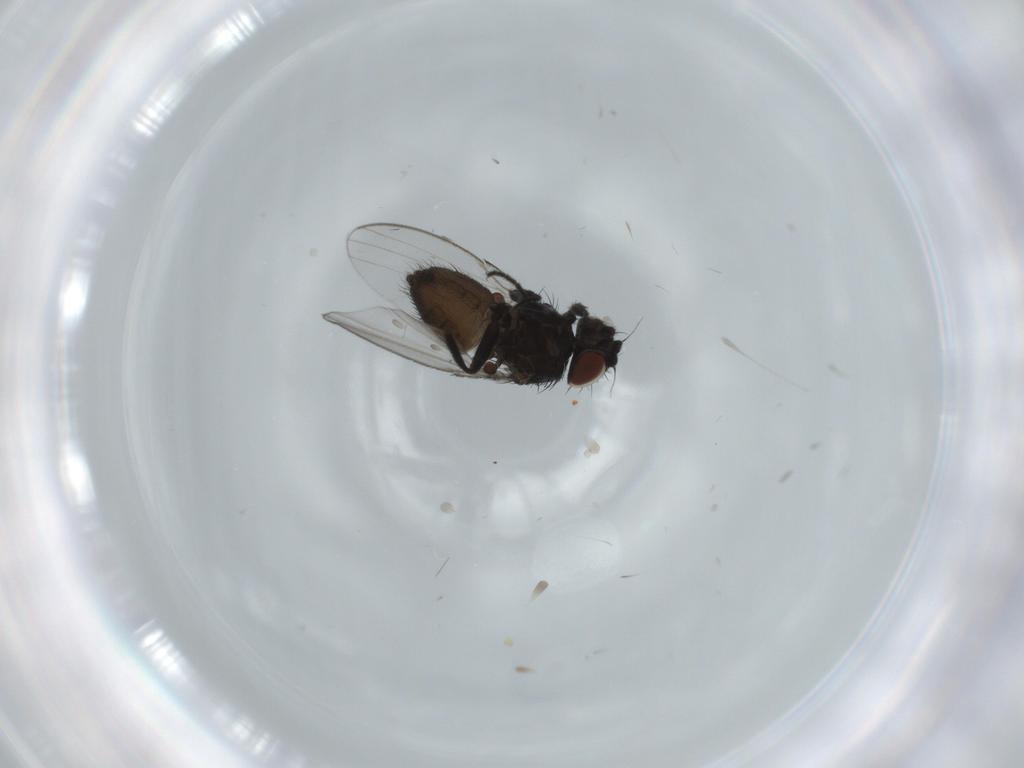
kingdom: Animalia
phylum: Arthropoda
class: Insecta
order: Diptera
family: Milichiidae
